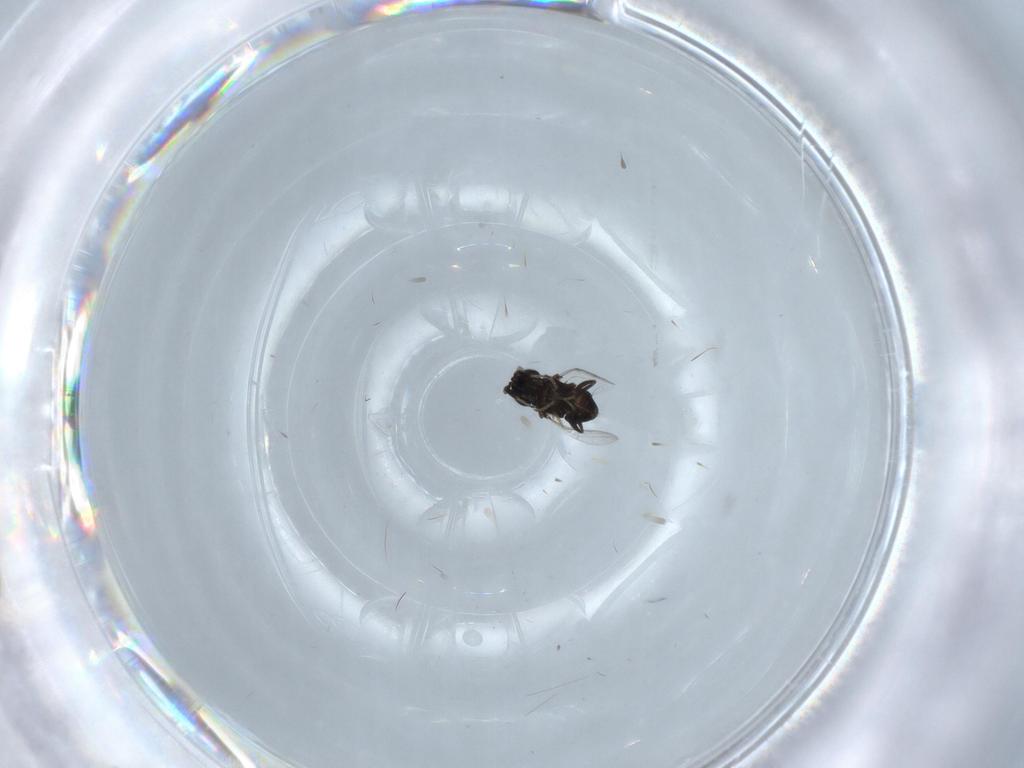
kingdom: Animalia
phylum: Arthropoda
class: Insecta
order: Hymenoptera
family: Encyrtidae
